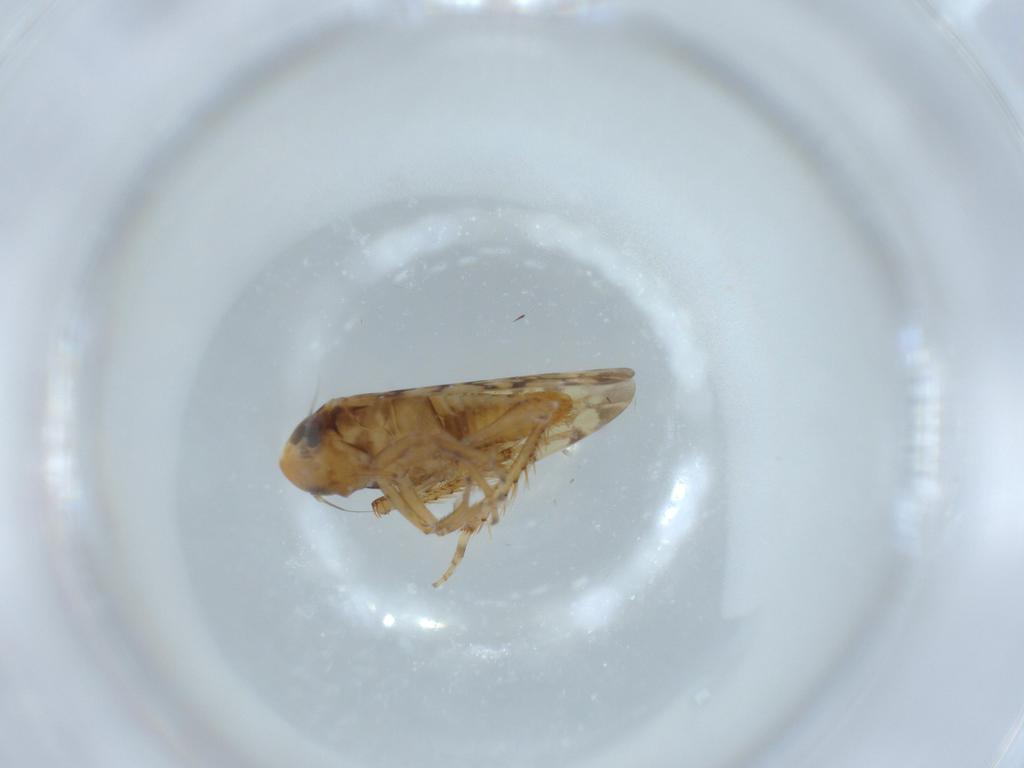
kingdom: Animalia
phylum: Arthropoda
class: Insecta
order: Hemiptera
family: Cicadellidae
